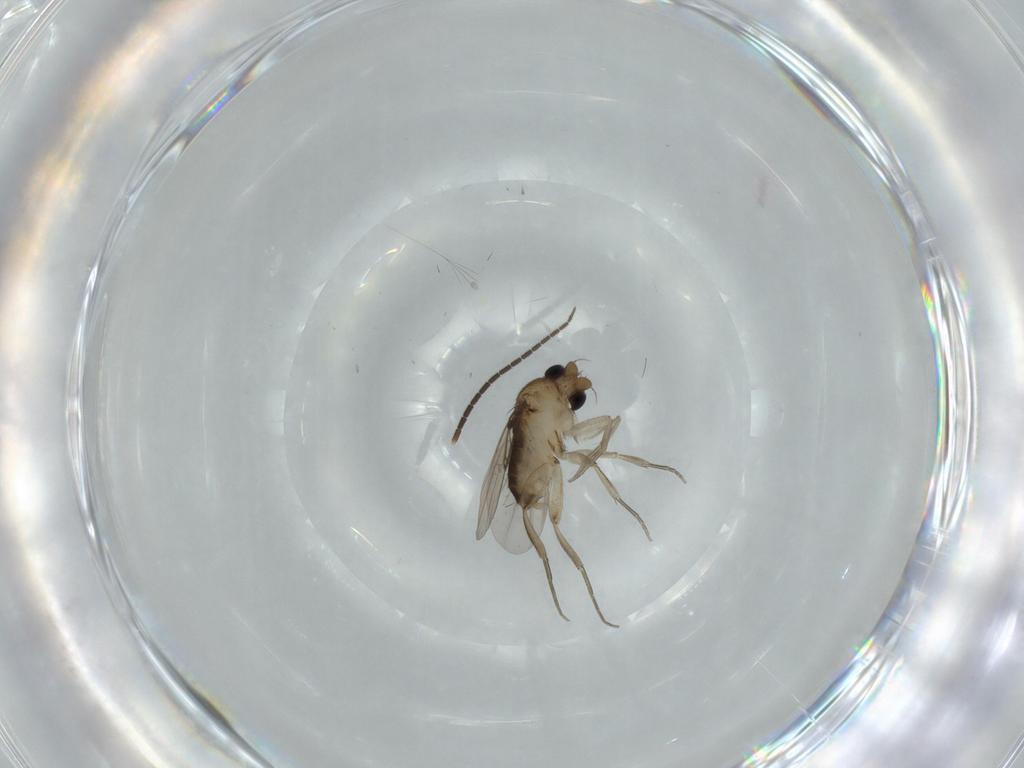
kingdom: Animalia
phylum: Arthropoda
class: Insecta
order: Diptera
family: Phoridae
